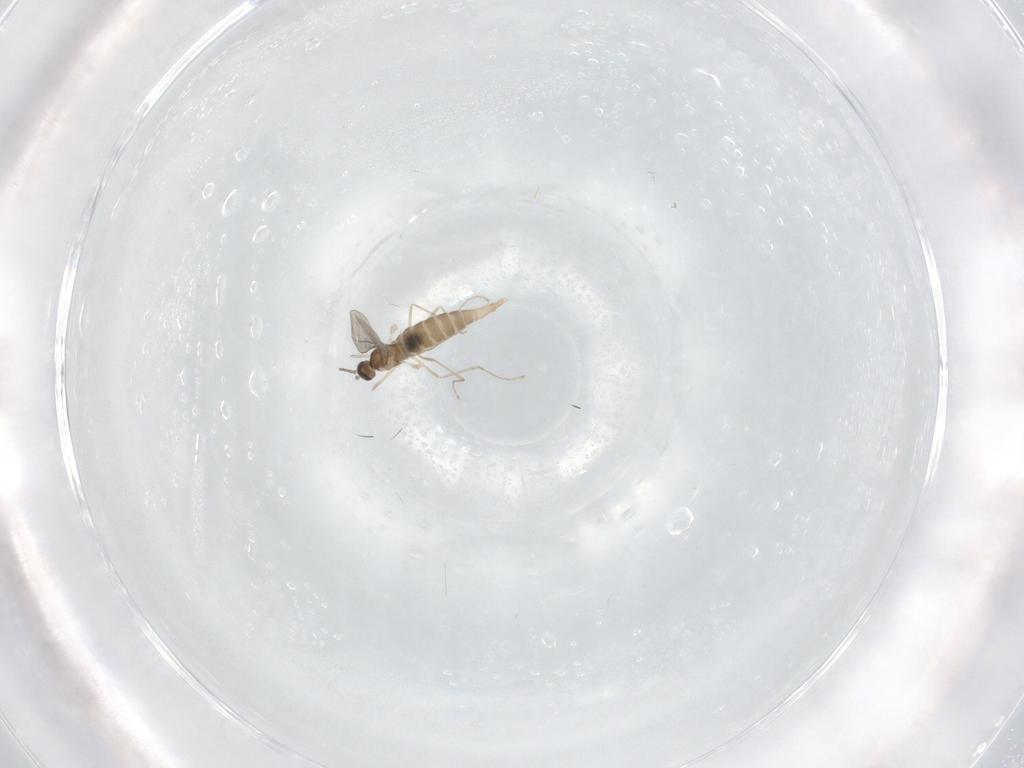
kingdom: Animalia
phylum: Arthropoda
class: Insecta
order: Diptera
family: Cecidomyiidae
